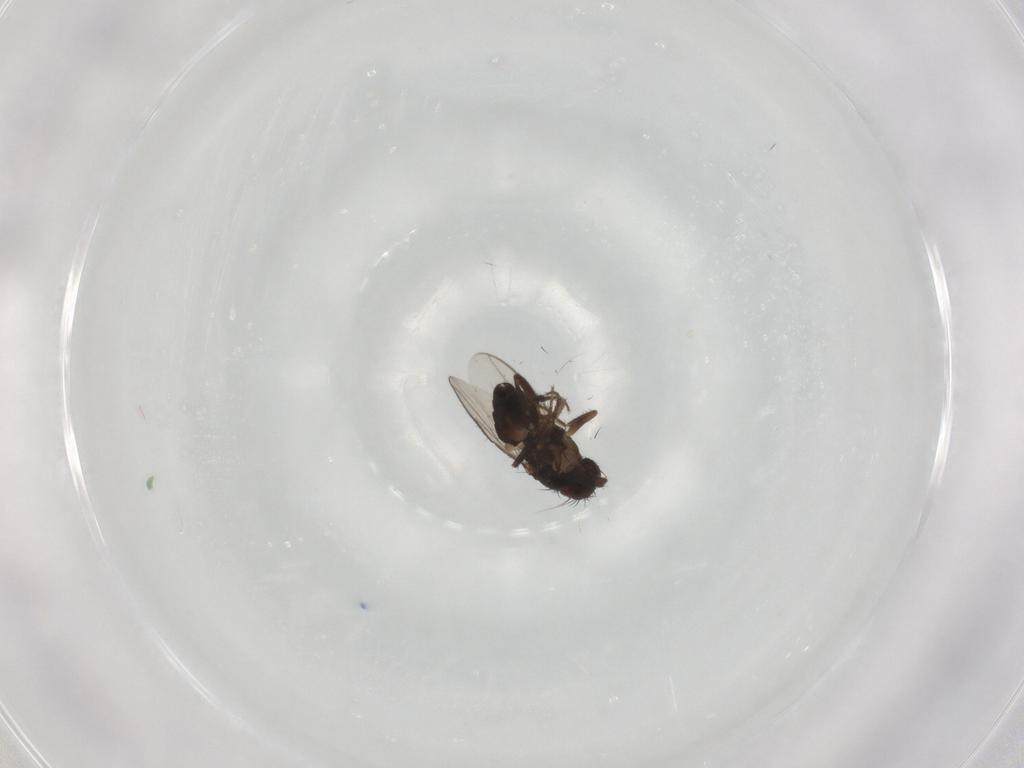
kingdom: Animalia
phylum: Arthropoda
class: Insecta
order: Diptera
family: Sphaeroceridae
